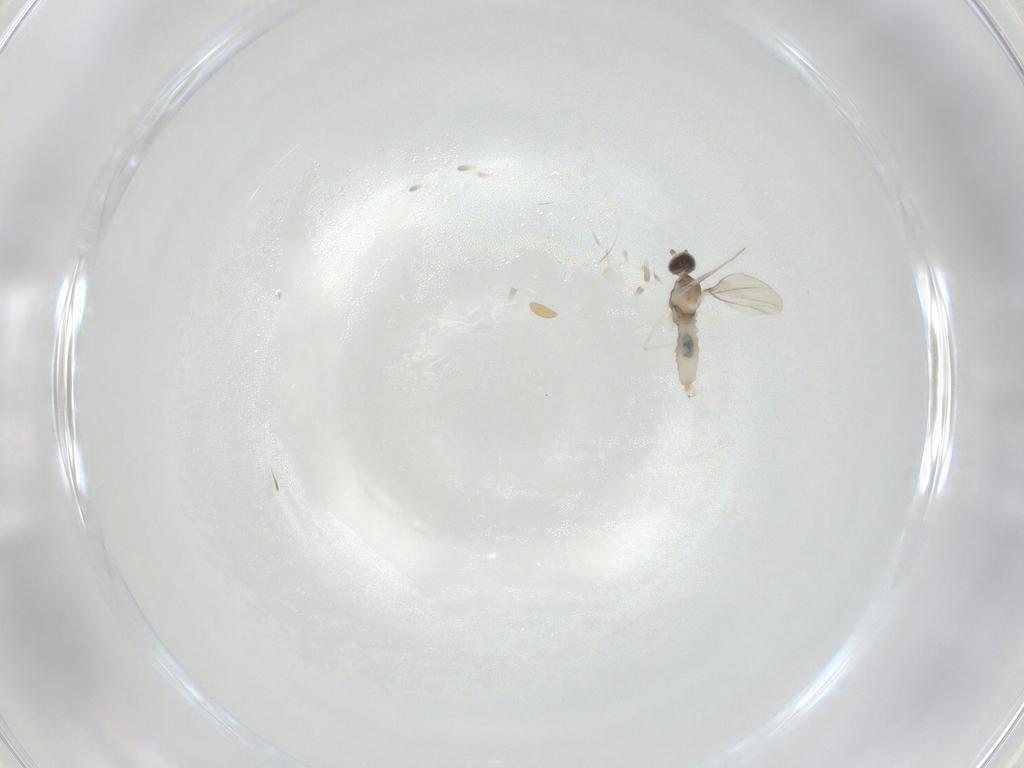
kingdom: Animalia
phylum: Arthropoda
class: Insecta
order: Diptera
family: Cecidomyiidae
